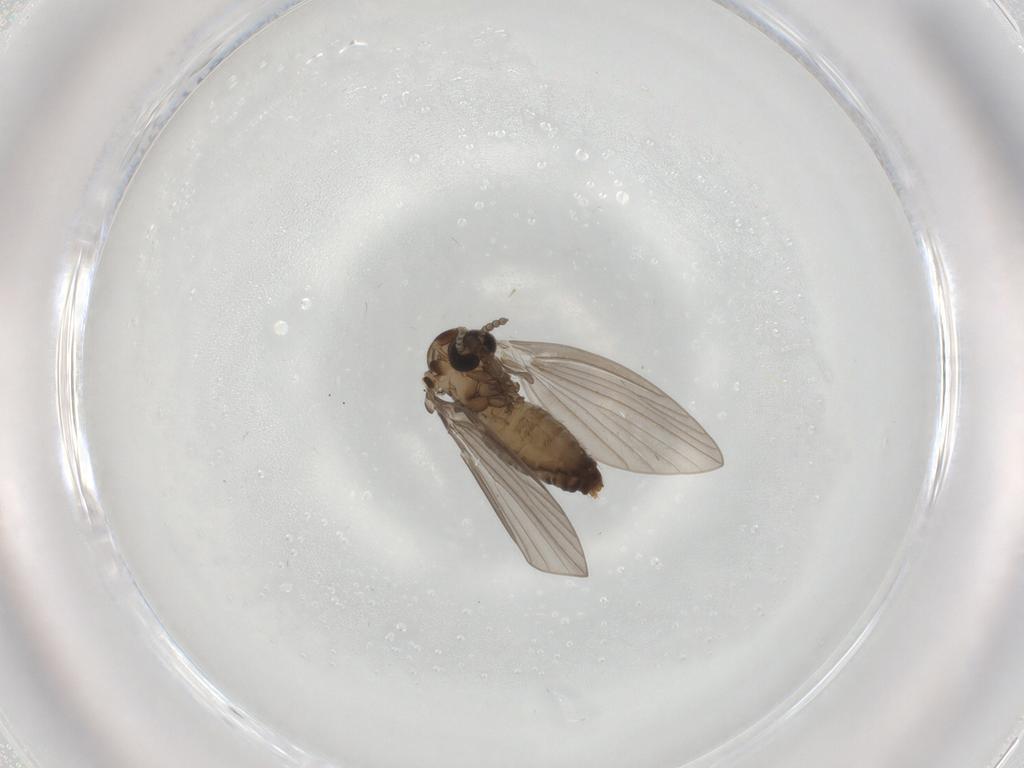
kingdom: Animalia
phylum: Arthropoda
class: Insecta
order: Diptera
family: Psychodidae
